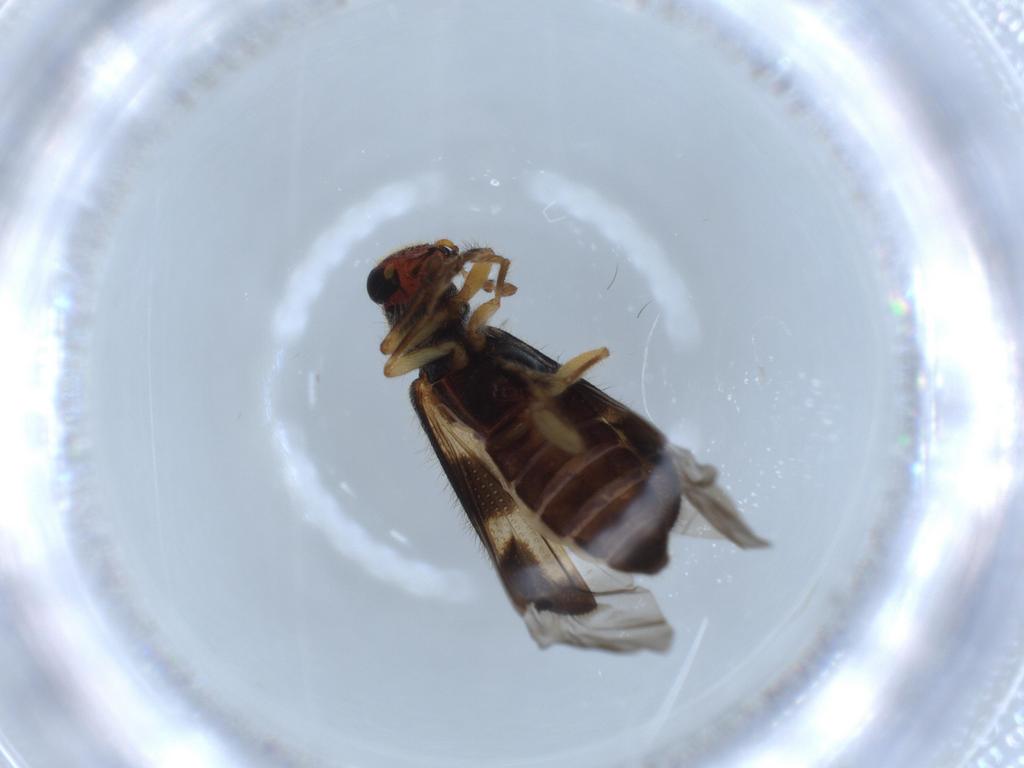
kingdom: Animalia
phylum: Arthropoda
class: Insecta
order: Coleoptera
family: Cleridae
